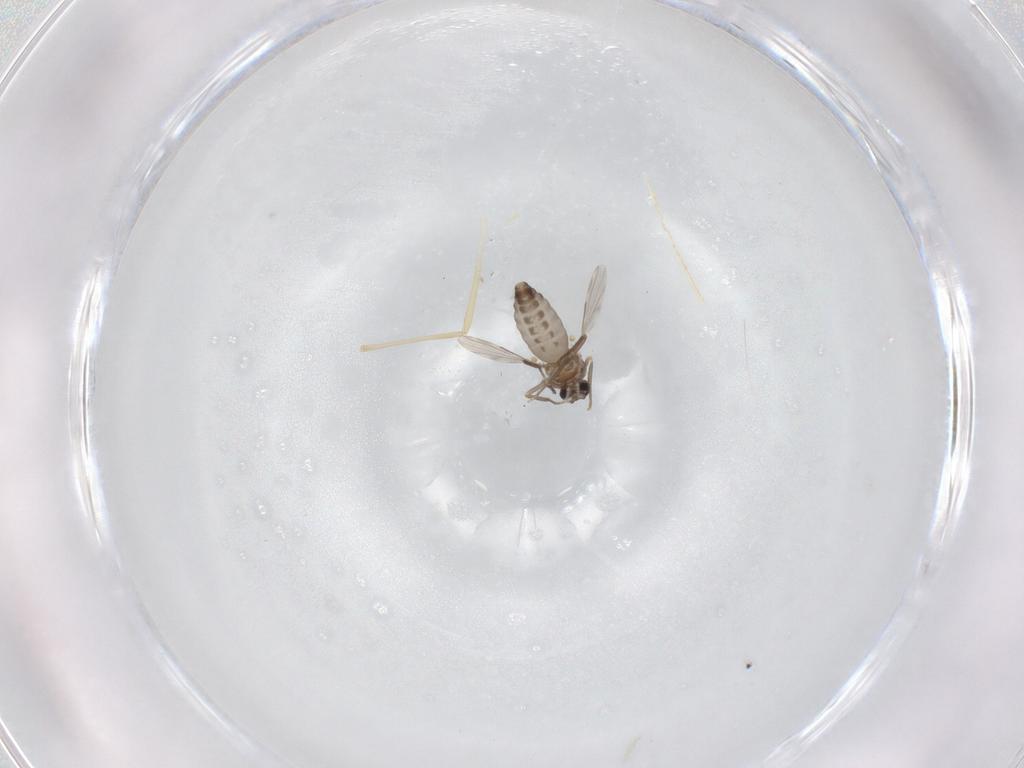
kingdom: Animalia
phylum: Arthropoda
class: Insecta
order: Diptera
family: Ceratopogonidae
